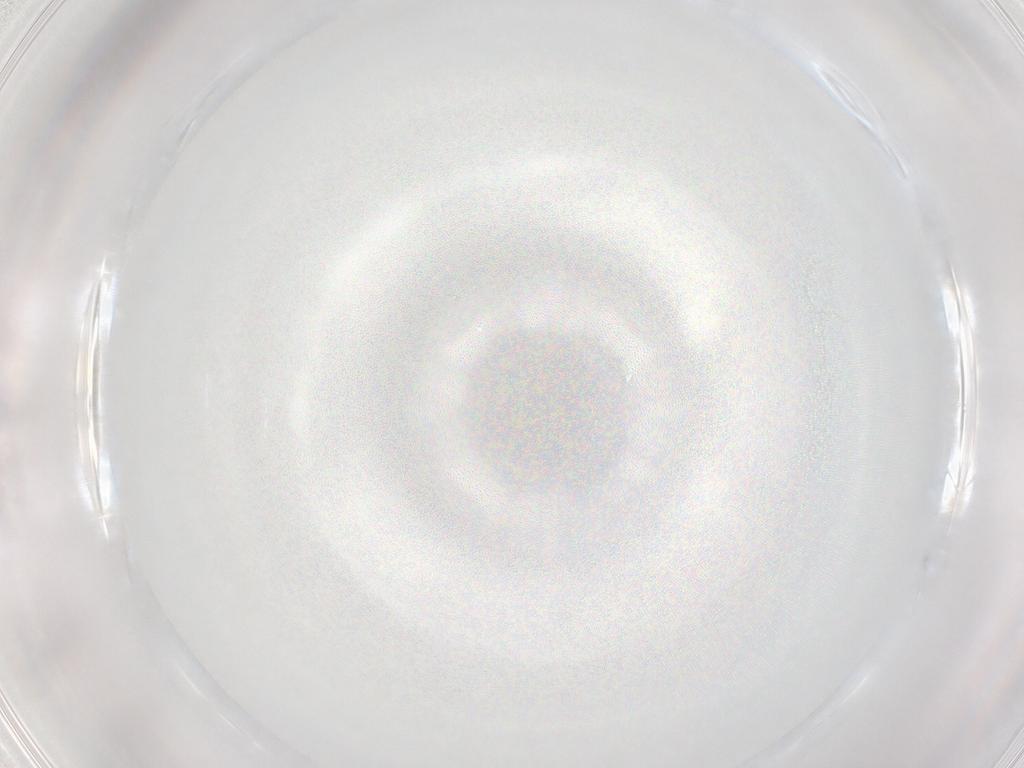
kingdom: Animalia
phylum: Arthropoda
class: Insecta
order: Diptera
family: Cecidomyiidae
